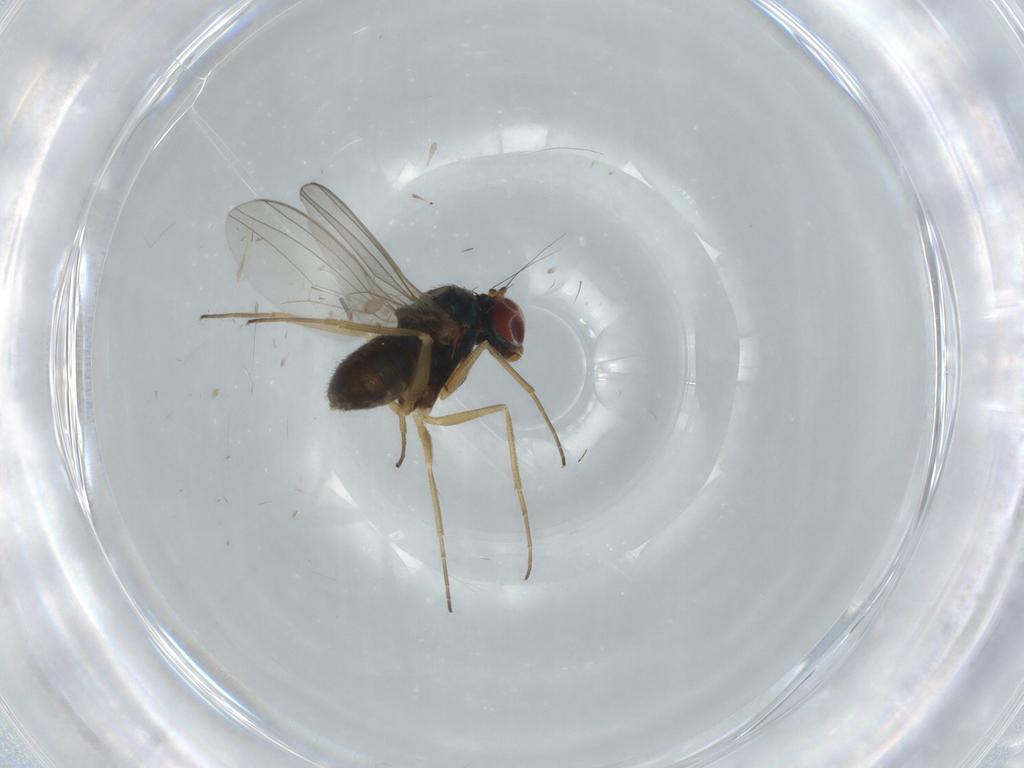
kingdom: Animalia
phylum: Arthropoda
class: Insecta
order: Diptera
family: Dolichopodidae
